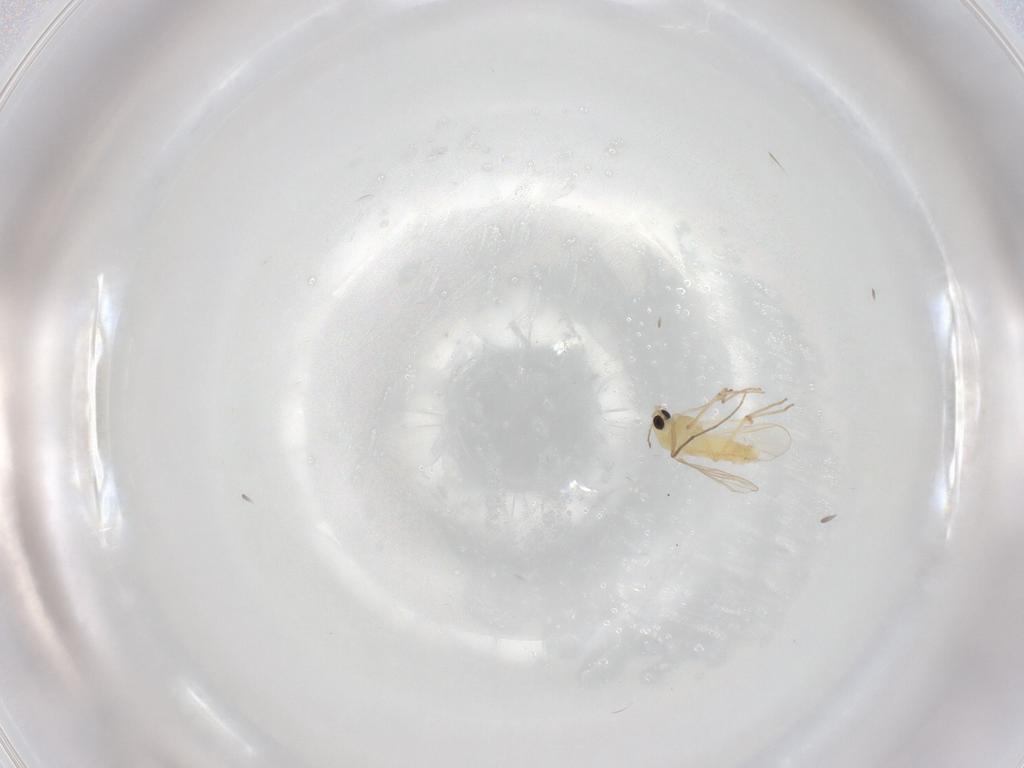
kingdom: Animalia
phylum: Arthropoda
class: Insecta
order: Diptera
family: Chironomidae
